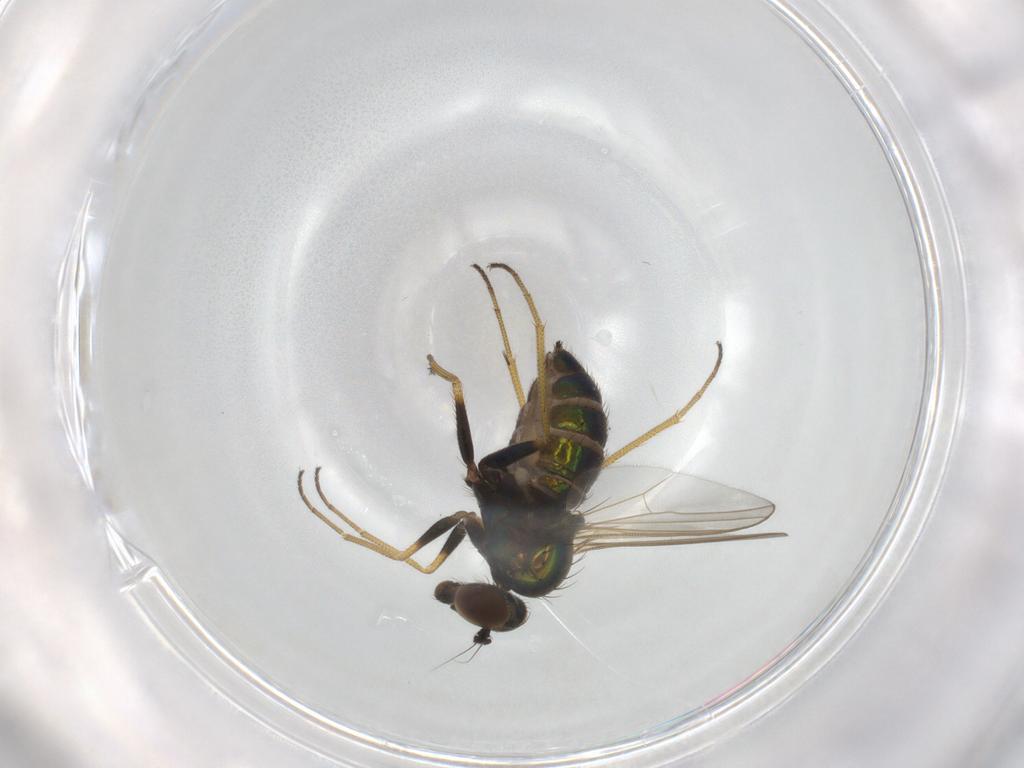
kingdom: Animalia
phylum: Arthropoda
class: Insecta
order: Diptera
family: Dolichopodidae
